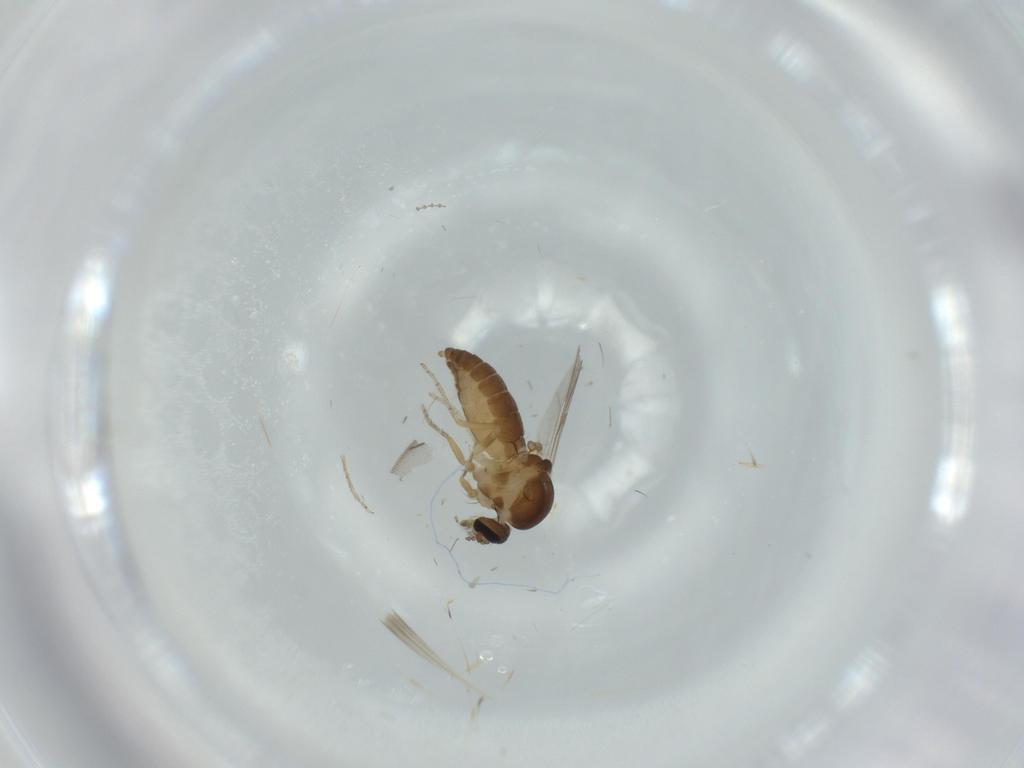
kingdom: Animalia
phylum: Arthropoda
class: Insecta
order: Diptera
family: Ceratopogonidae
